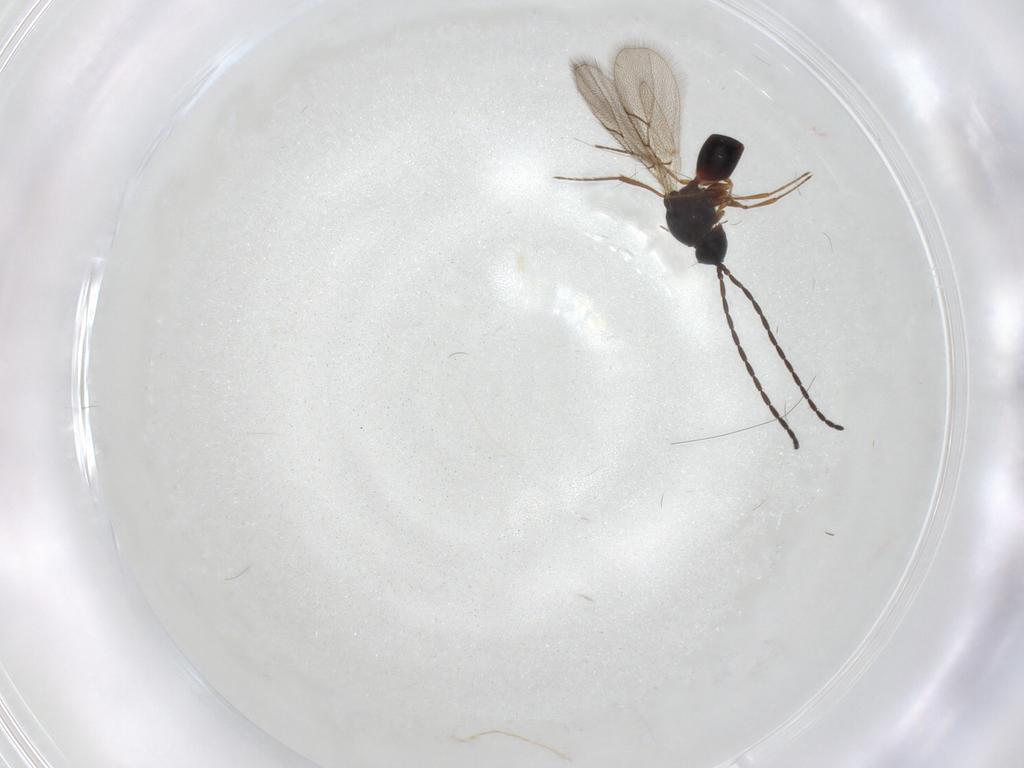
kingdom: Animalia
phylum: Arthropoda
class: Insecta
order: Hymenoptera
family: Figitidae
